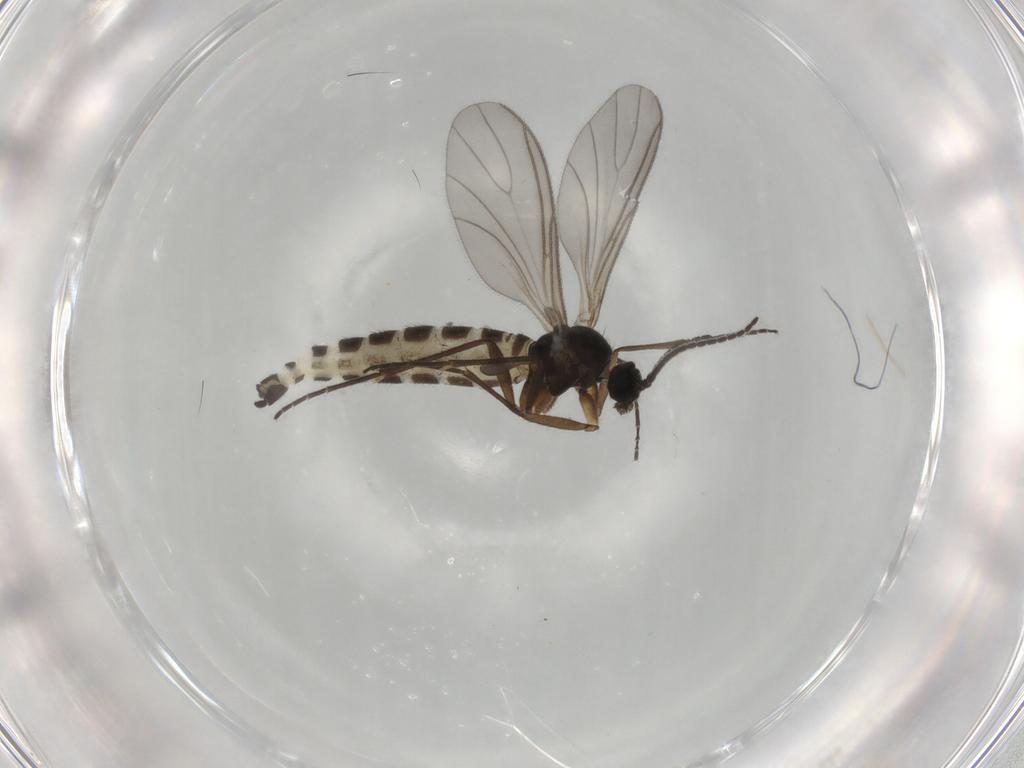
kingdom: Animalia
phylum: Arthropoda
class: Insecta
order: Diptera
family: Sciaridae
